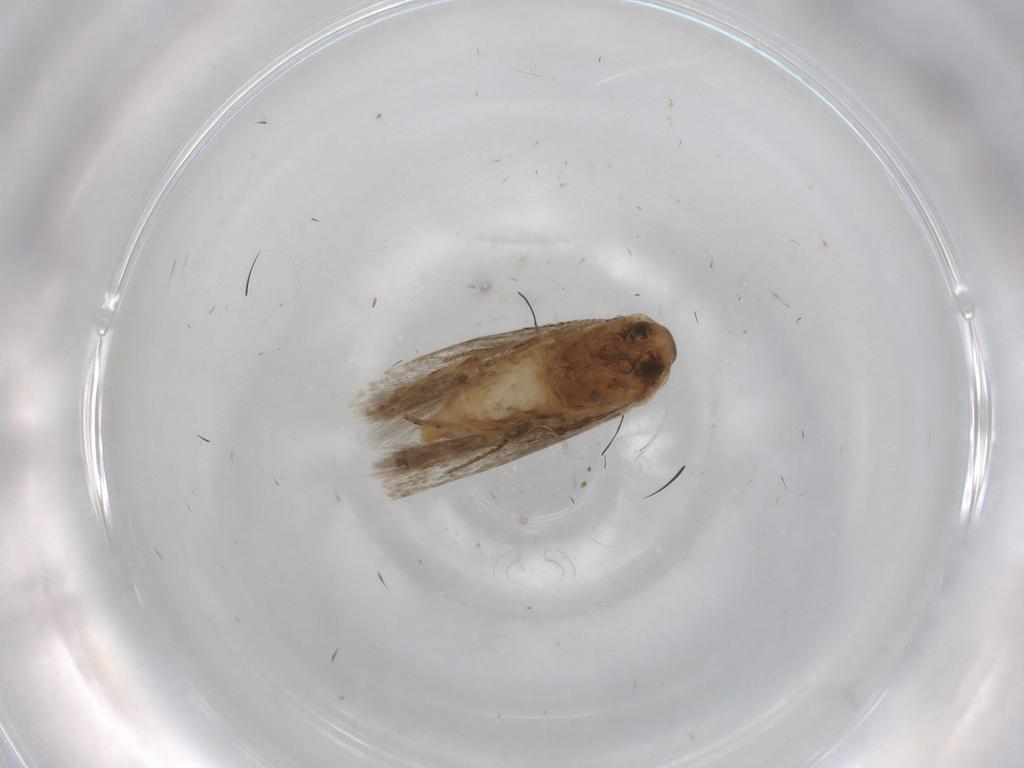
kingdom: Animalia
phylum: Arthropoda
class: Insecta
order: Lepidoptera
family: Gelechiidae
